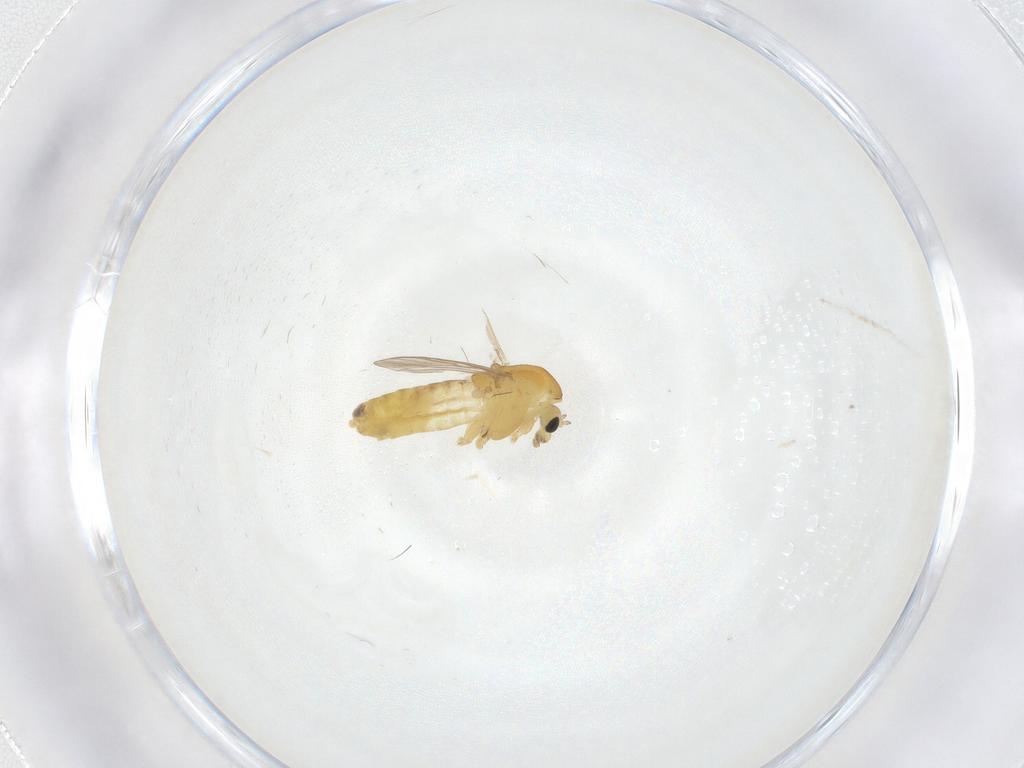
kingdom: Animalia
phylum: Arthropoda
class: Insecta
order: Diptera
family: Chironomidae
